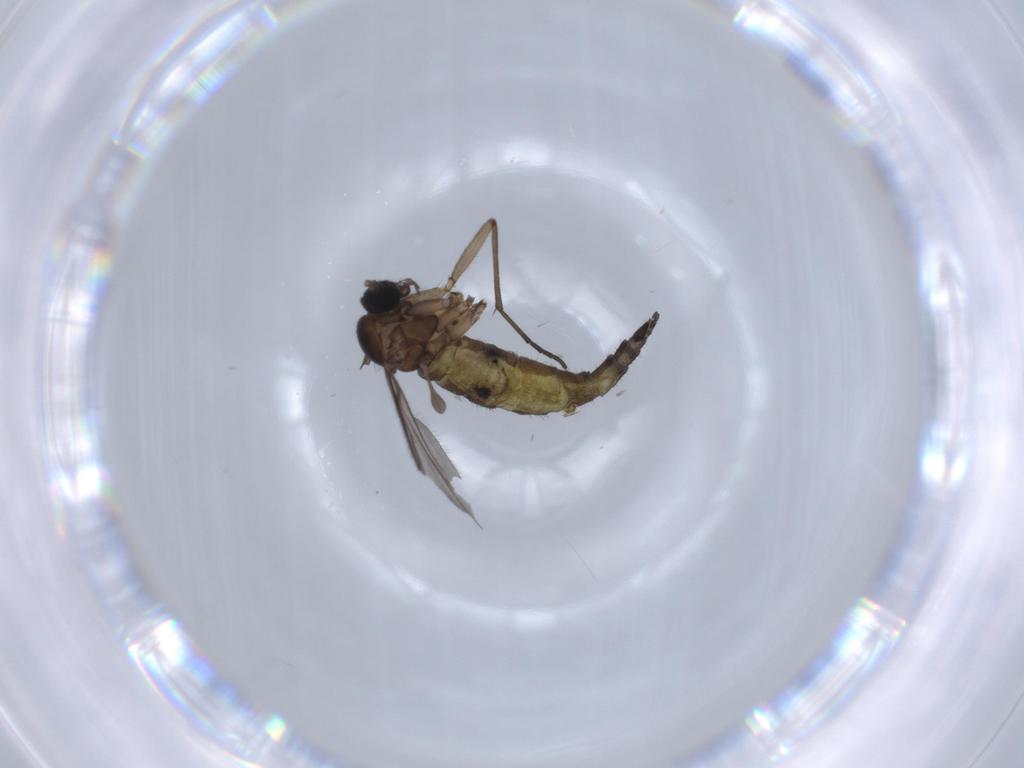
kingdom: Animalia
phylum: Arthropoda
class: Insecta
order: Diptera
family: Sciaridae
